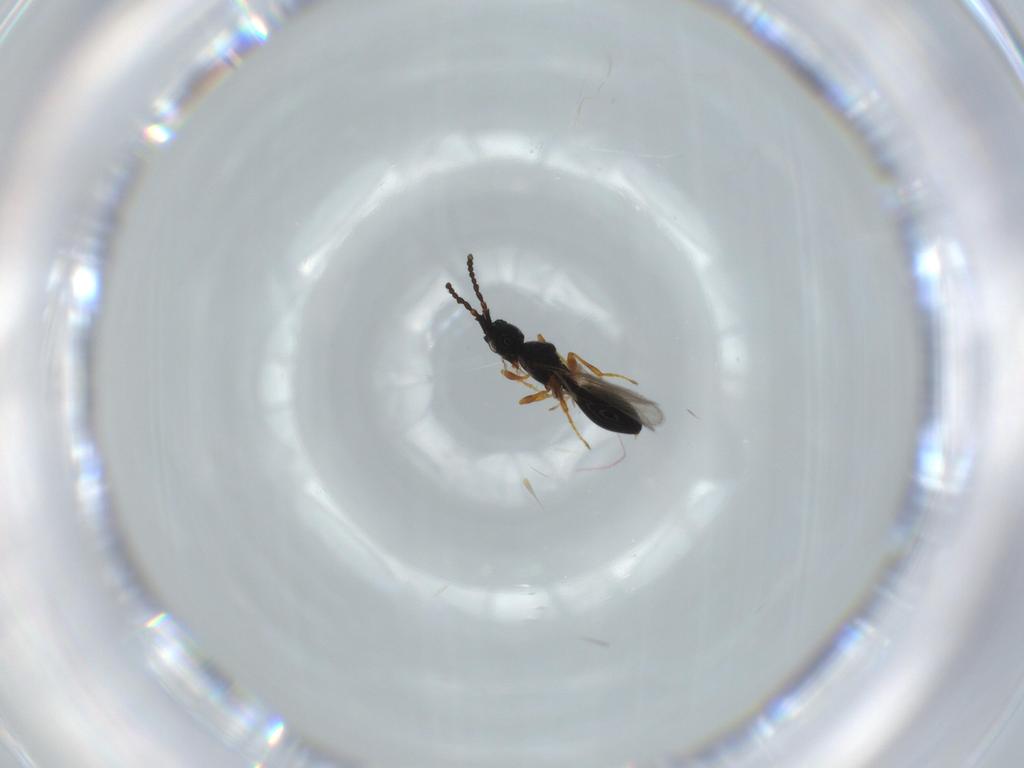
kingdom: Animalia
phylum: Arthropoda
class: Insecta
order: Hymenoptera
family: Diapriidae
